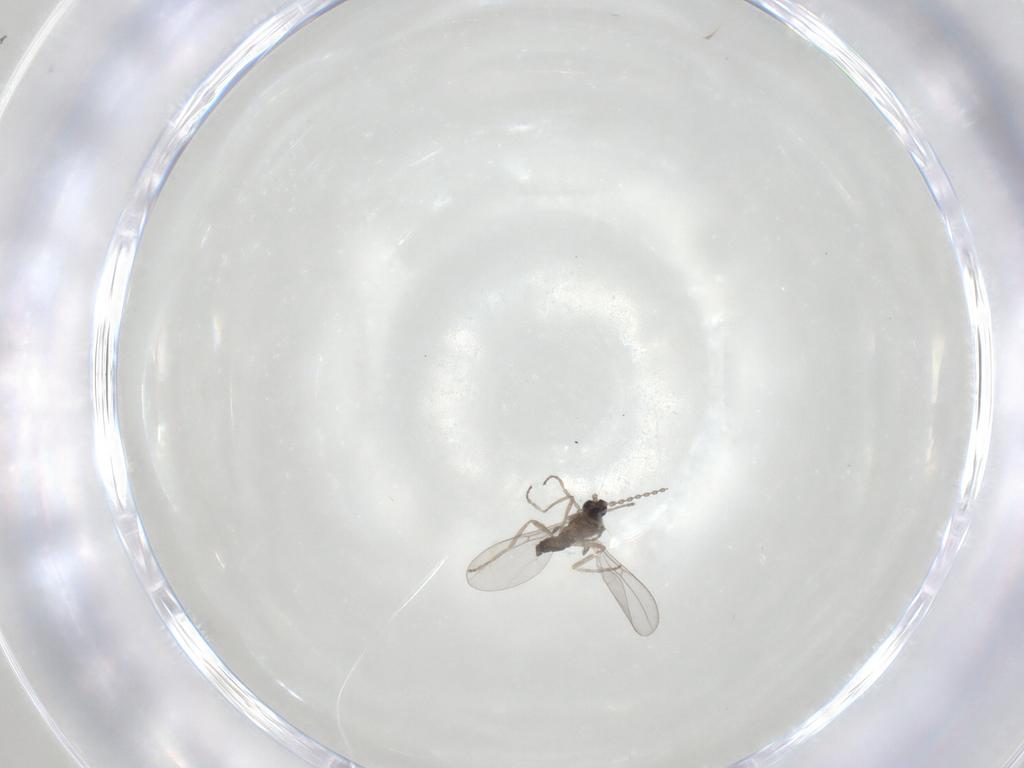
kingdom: Animalia
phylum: Arthropoda
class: Insecta
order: Diptera
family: Cecidomyiidae
